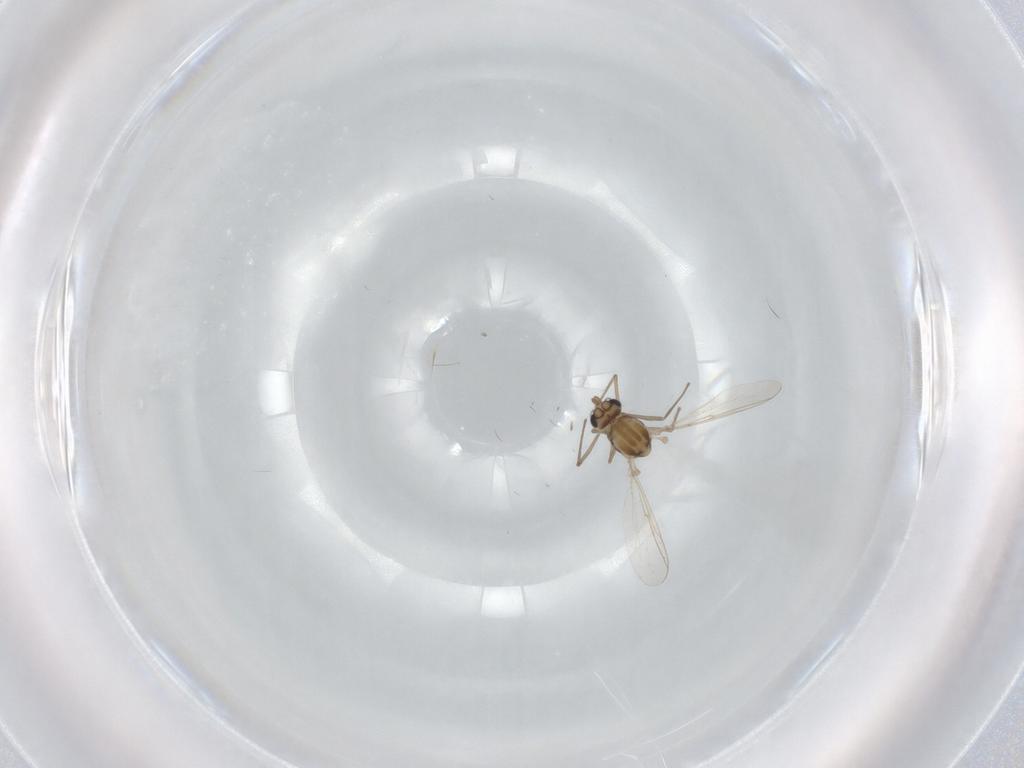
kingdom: Animalia
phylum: Arthropoda
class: Insecta
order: Diptera
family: Chironomidae
